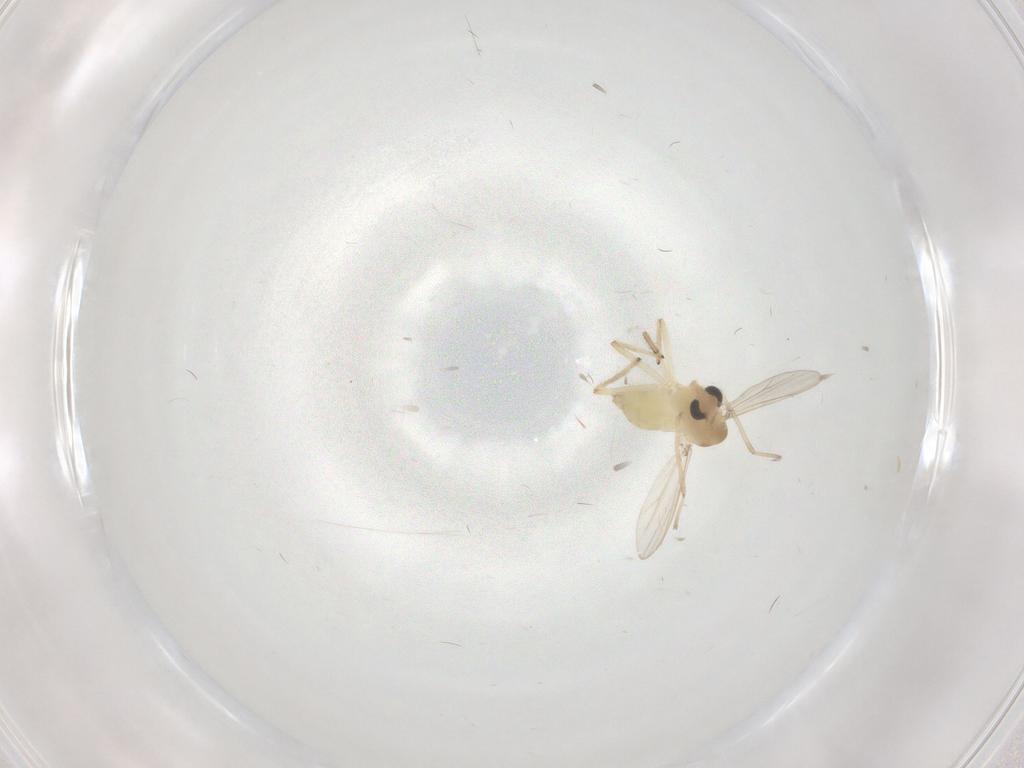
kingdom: Animalia
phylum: Arthropoda
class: Insecta
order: Diptera
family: Chironomidae
